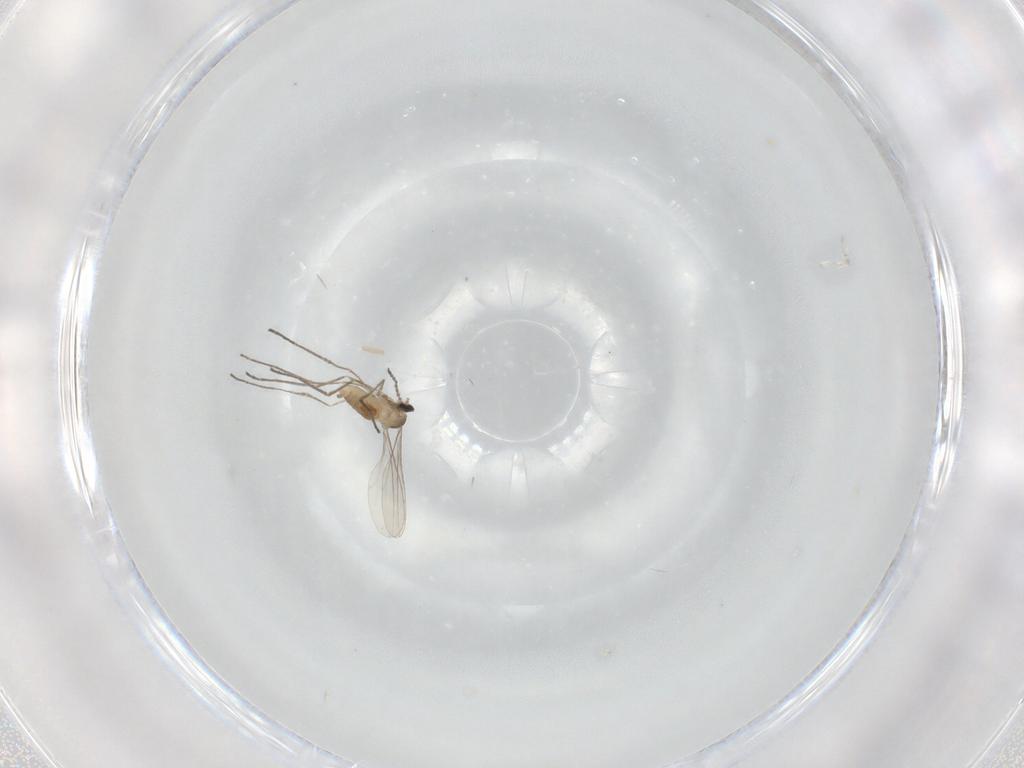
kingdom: Animalia
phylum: Arthropoda
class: Insecta
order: Diptera
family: Cecidomyiidae
